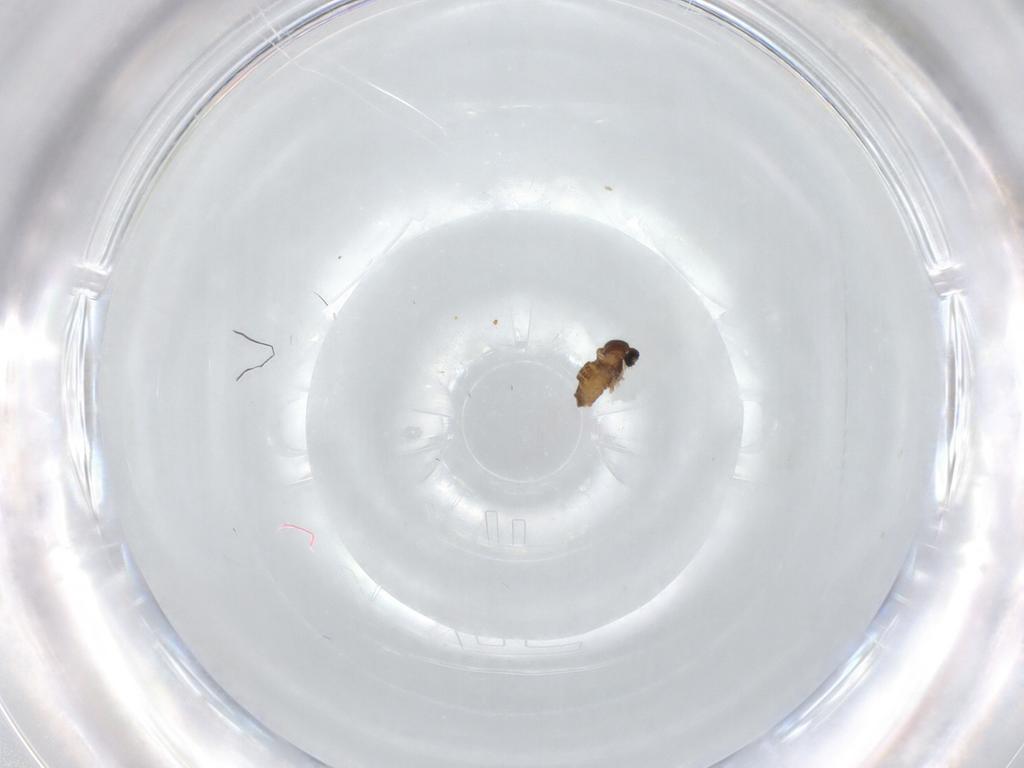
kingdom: Animalia
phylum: Arthropoda
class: Insecta
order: Diptera
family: Cecidomyiidae
